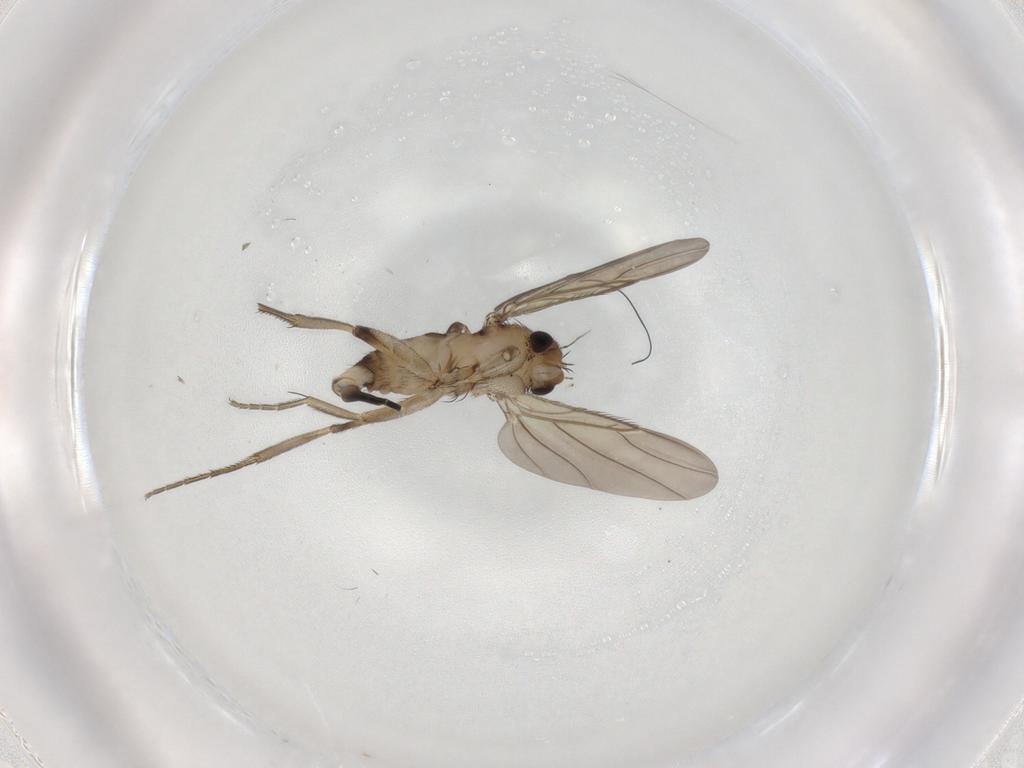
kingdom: Animalia
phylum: Arthropoda
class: Insecta
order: Diptera
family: Phoridae
